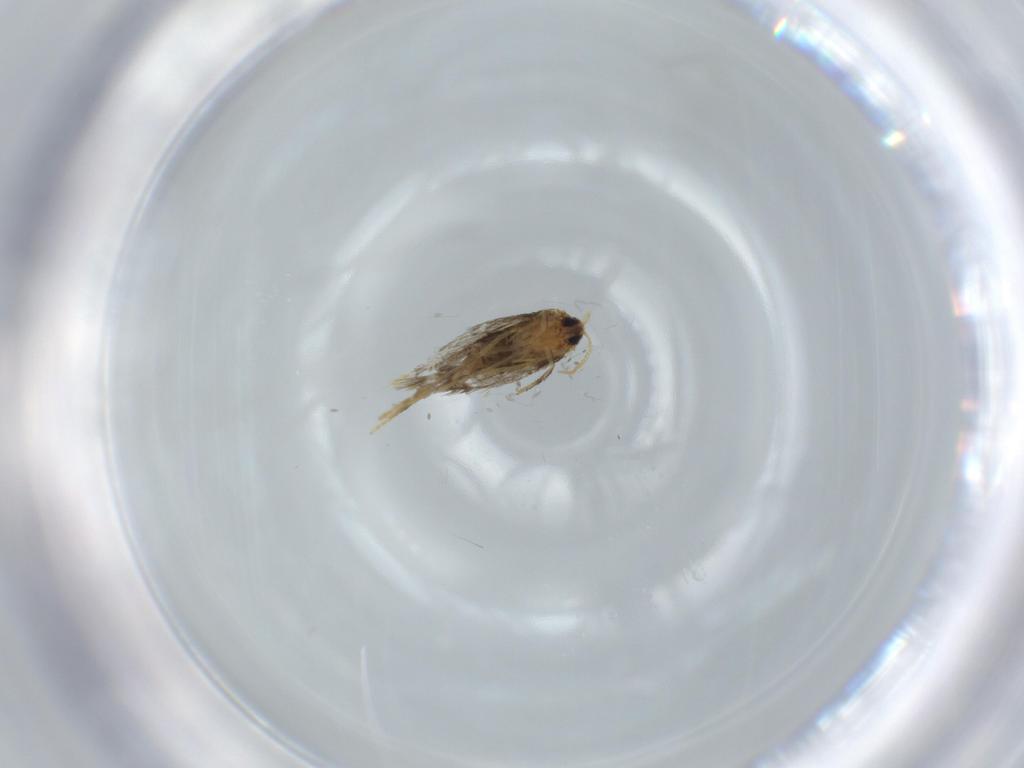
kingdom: Animalia
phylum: Arthropoda
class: Insecta
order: Lepidoptera
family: Copromorphidae
